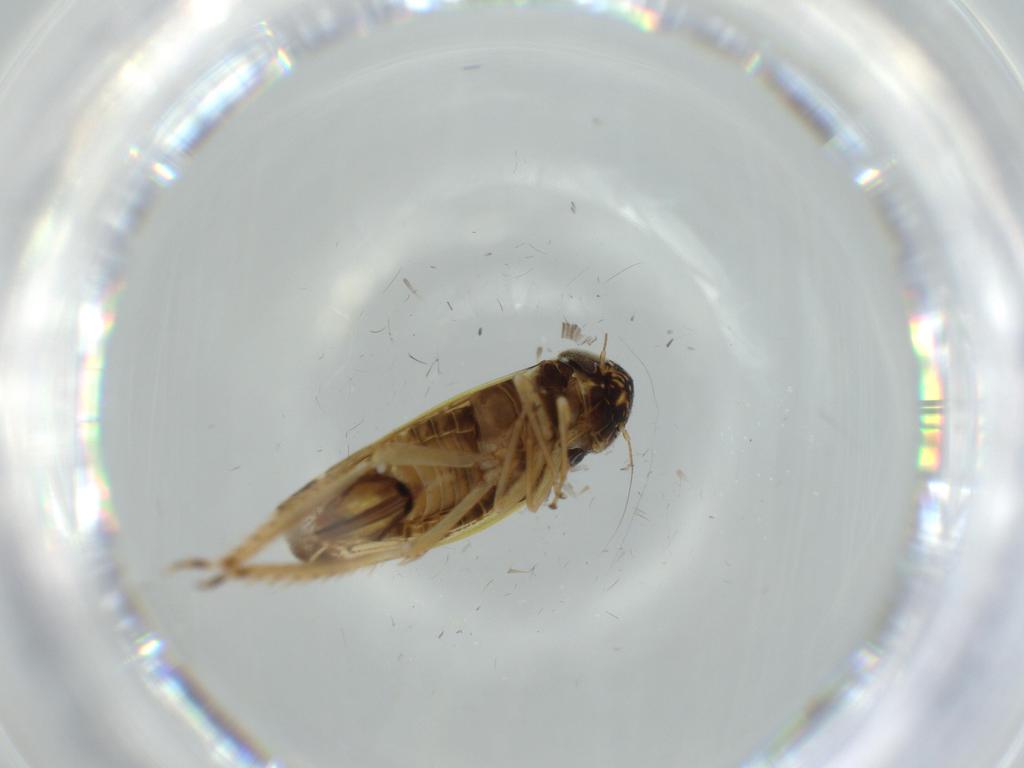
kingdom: Animalia
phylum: Arthropoda
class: Insecta
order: Hemiptera
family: Cicadellidae
